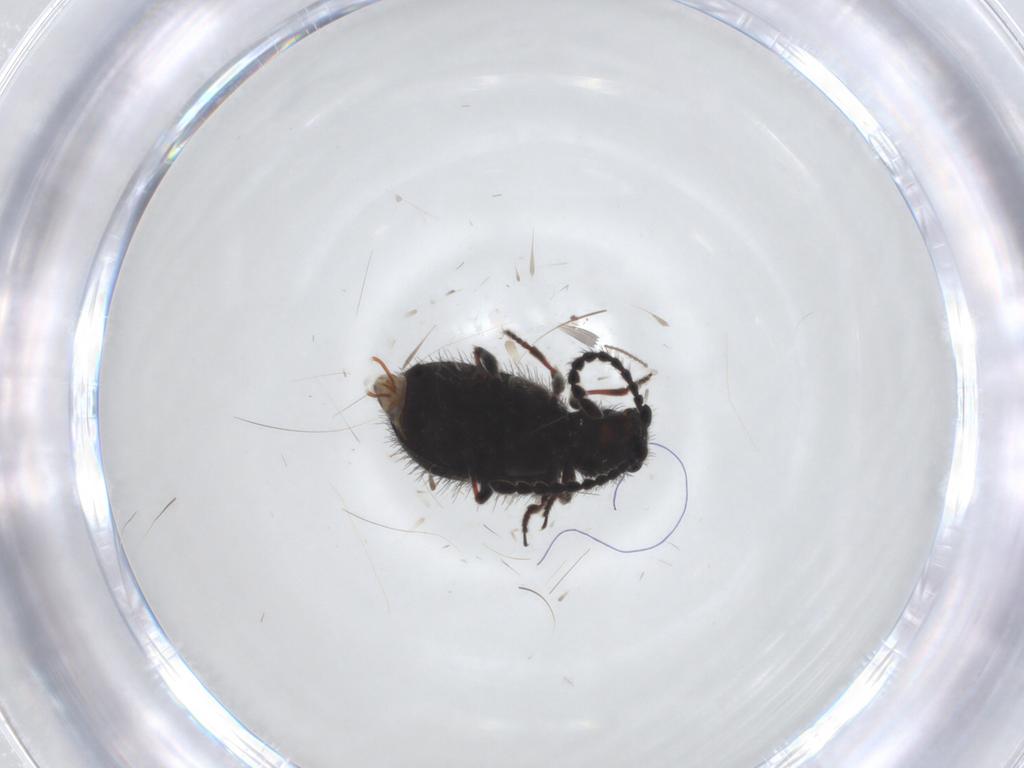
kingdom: Animalia
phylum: Arthropoda
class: Insecta
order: Coleoptera
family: Ptinidae
